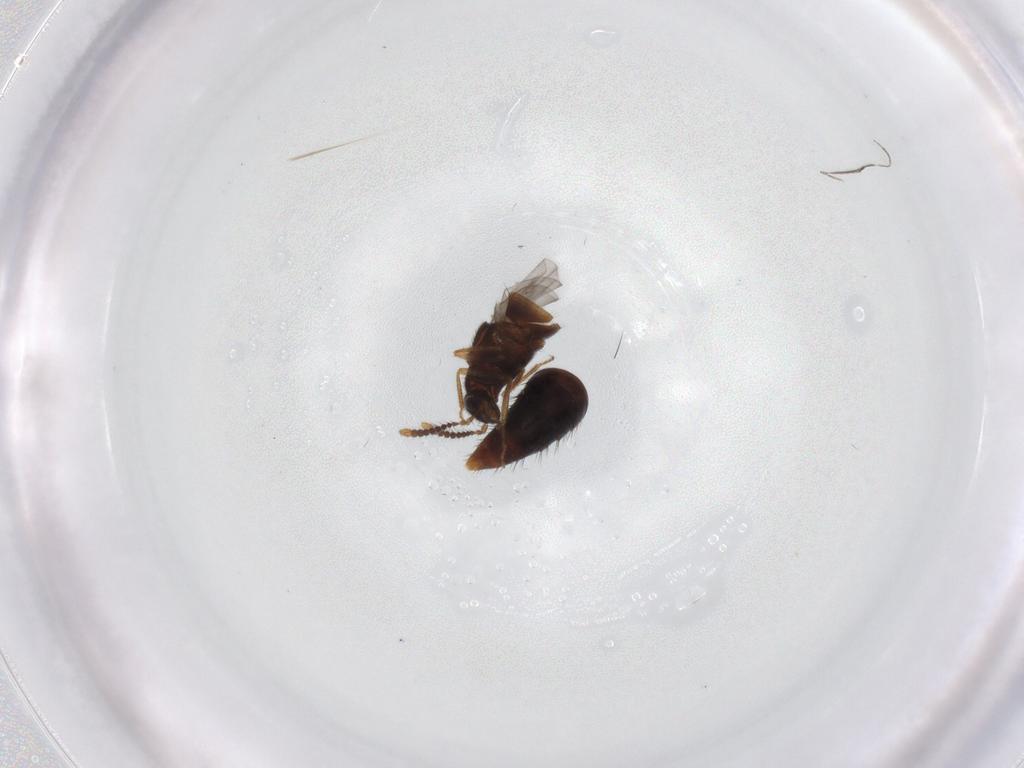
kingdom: Animalia
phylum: Arthropoda
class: Insecta
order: Coleoptera
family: Staphylinidae
